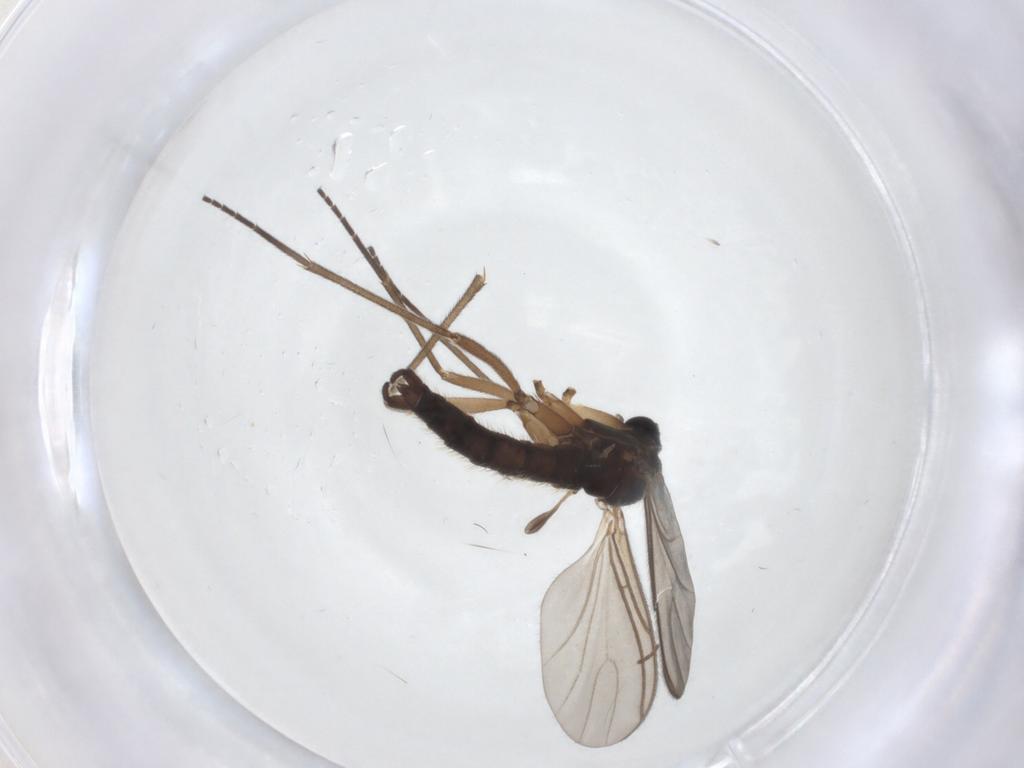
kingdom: Animalia
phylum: Arthropoda
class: Insecta
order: Diptera
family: Sciaridae
